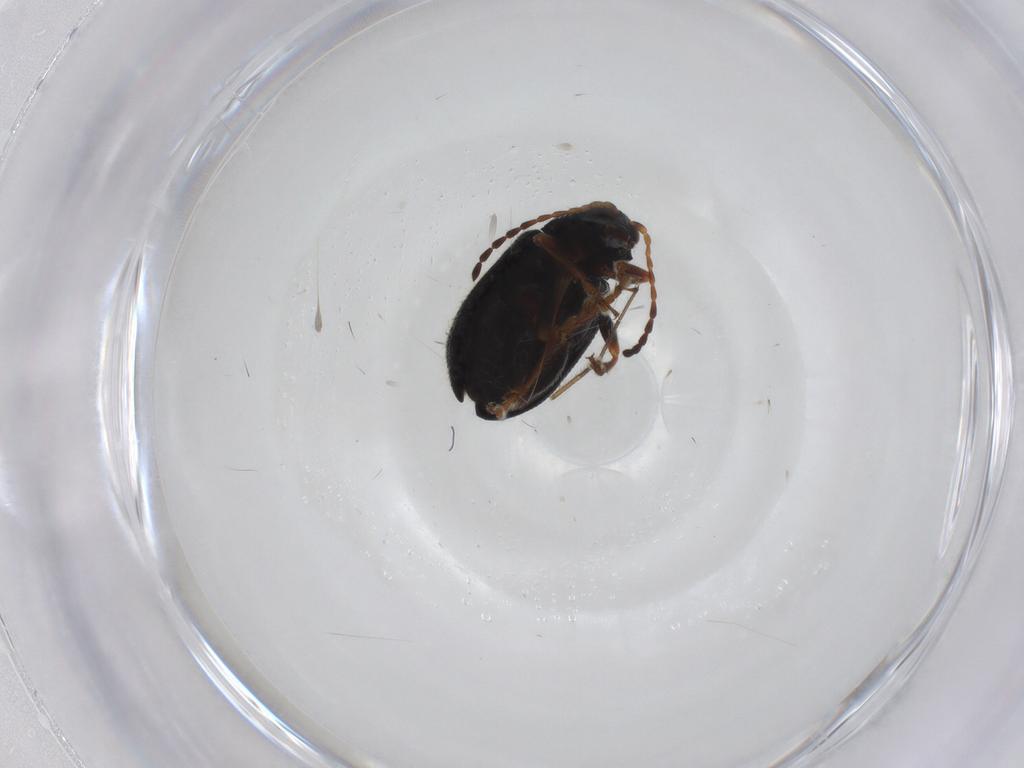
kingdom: Animalia
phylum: Arthropoda
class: Insecta
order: Coleoptera
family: Chrysomelidae
